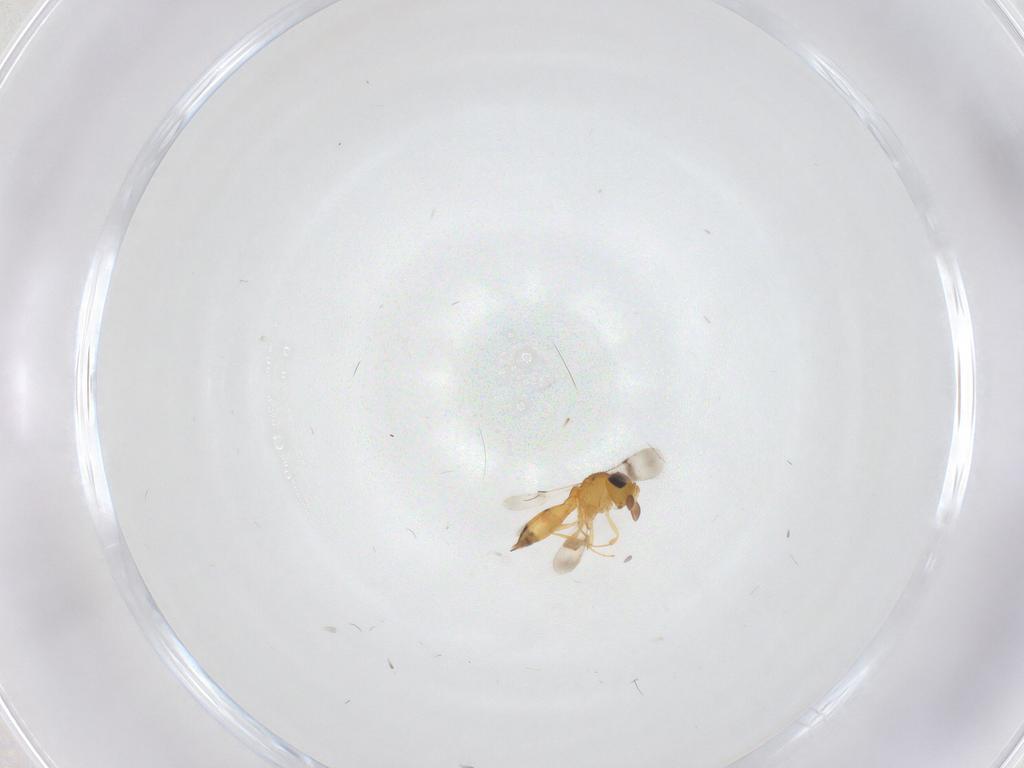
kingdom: Animalia
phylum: Arthropoda
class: Insecta
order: Hymenoptera
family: Scelionidae
